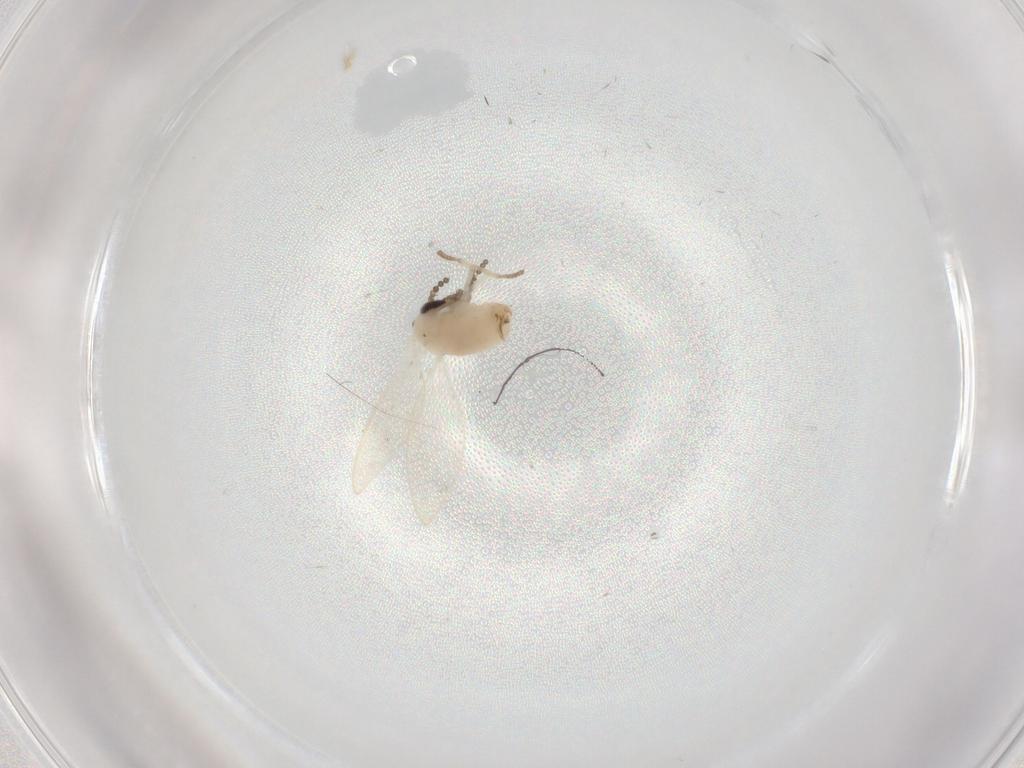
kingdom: Animalia
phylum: Arthropoda
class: Insecta
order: Diptera
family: Psychodidae
